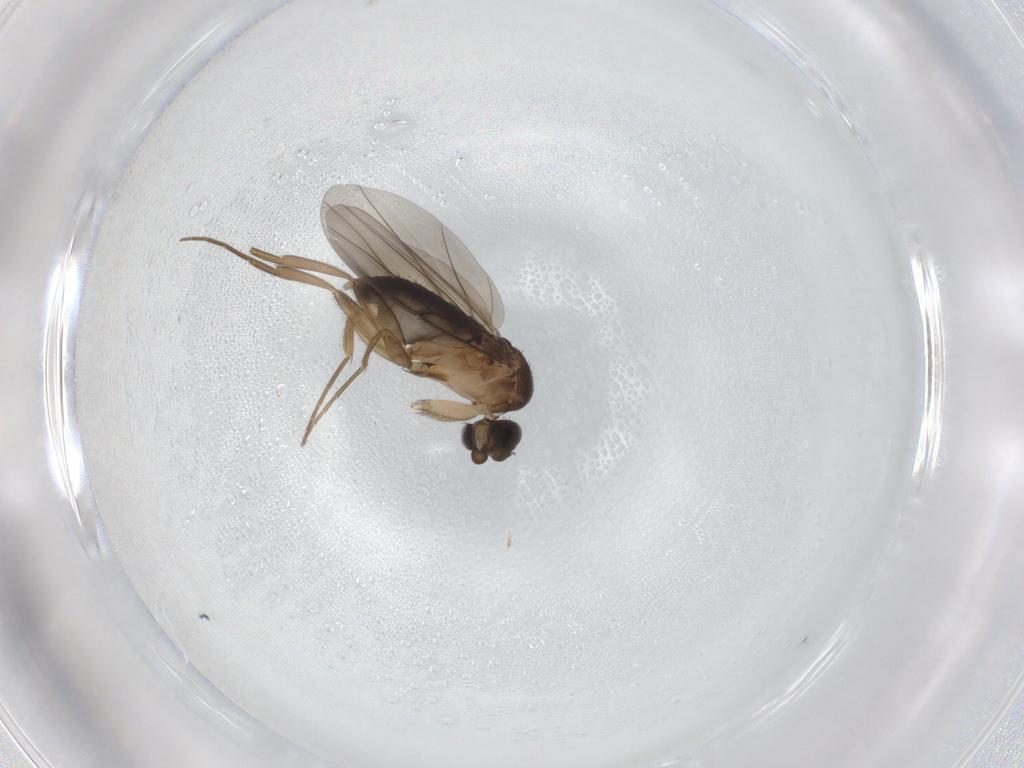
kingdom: Animalia
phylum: Arthropoda
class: Insecta
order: Diptera
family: Phoridae
